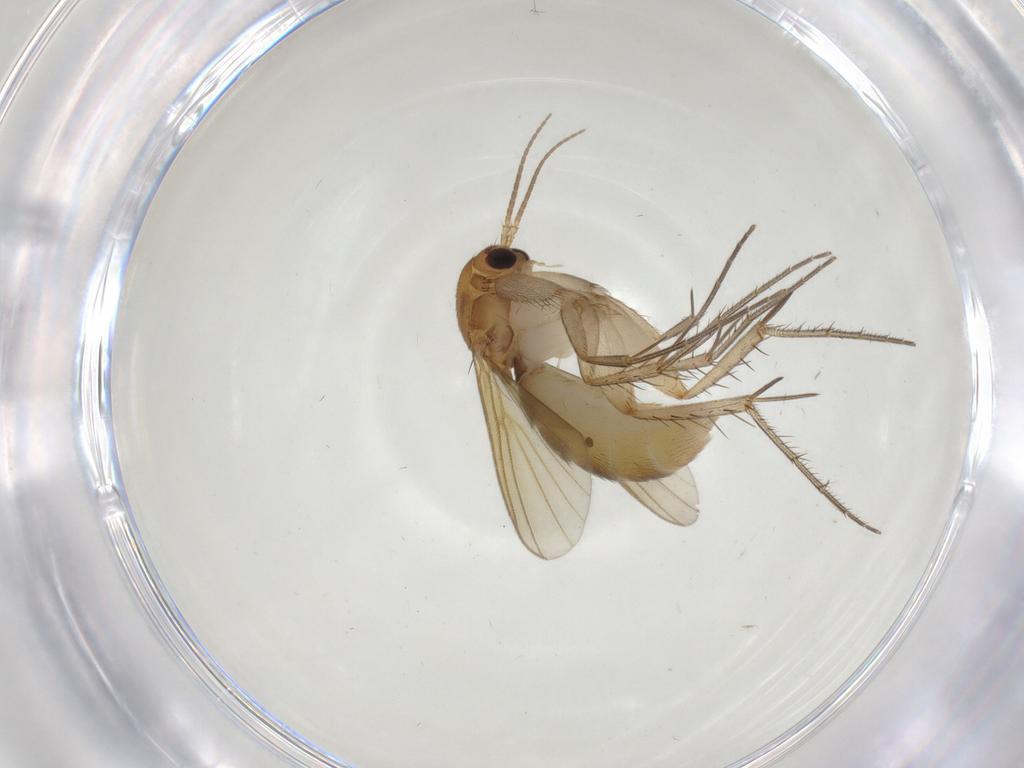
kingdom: Animalia
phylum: Arthropoda
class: Insecta
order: Diptera
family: Mycetophilidae
